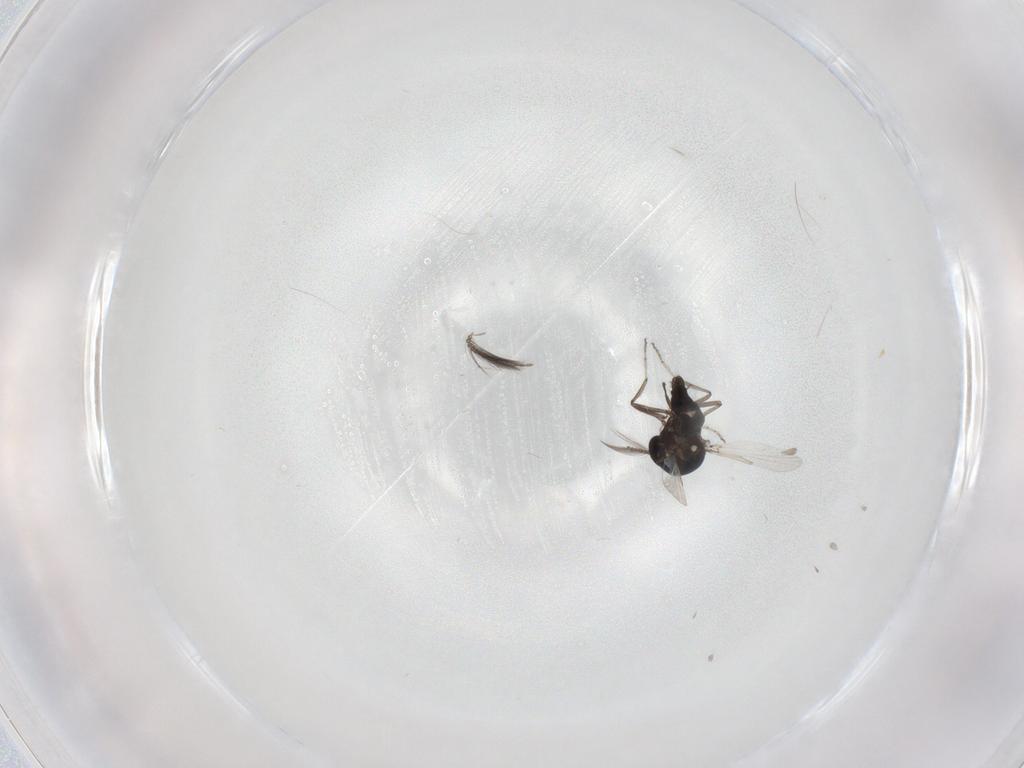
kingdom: Animalia
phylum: Arthropoda
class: Insecta
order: Diptera
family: Ceratopogonidae
